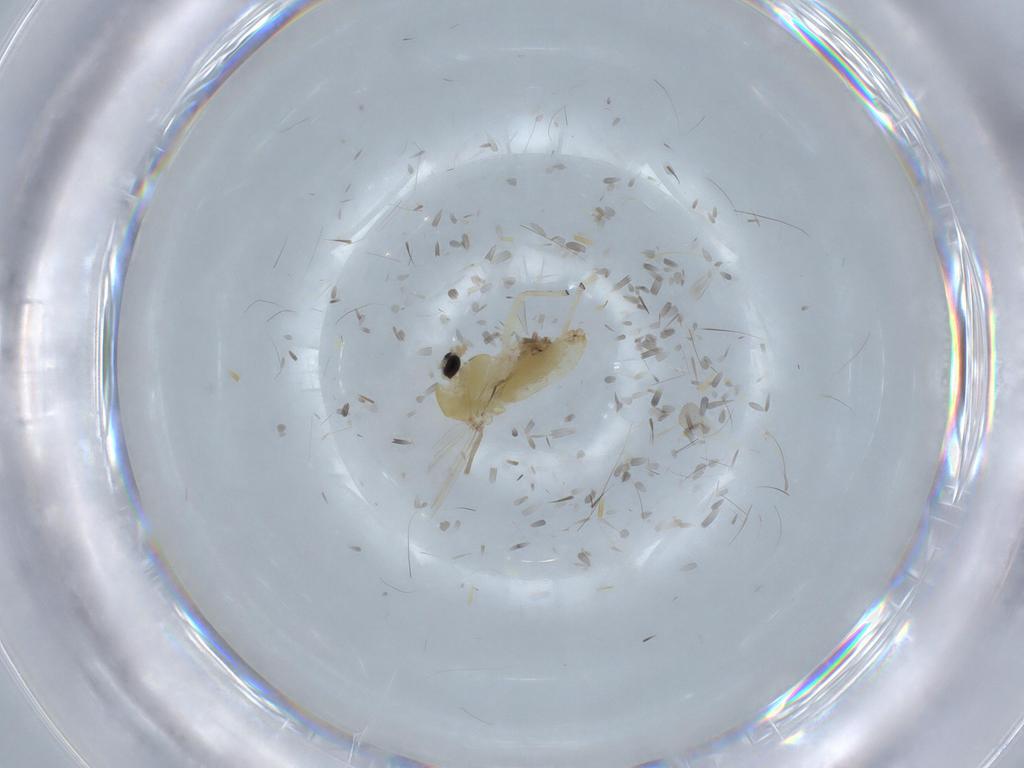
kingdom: Animalia
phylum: Arthropoda
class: Insecta
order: Diptera
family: Chironomidae
